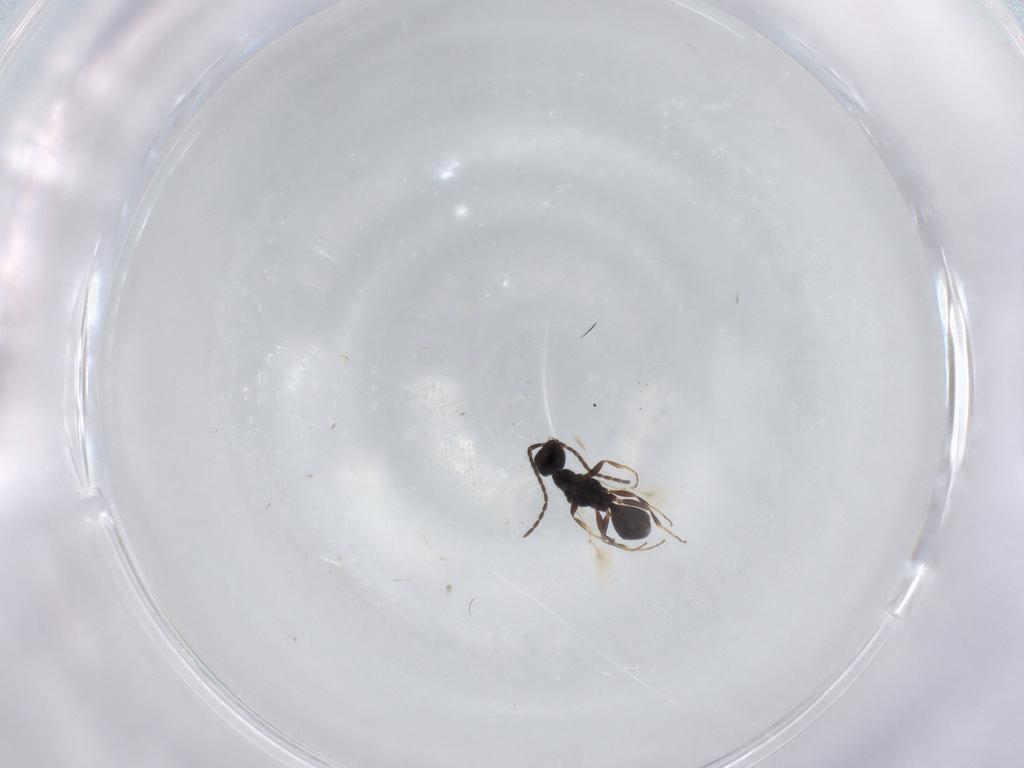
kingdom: Animalia
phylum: Arthropoda
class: Insecta
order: Hymenoptera
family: Bethylidae
